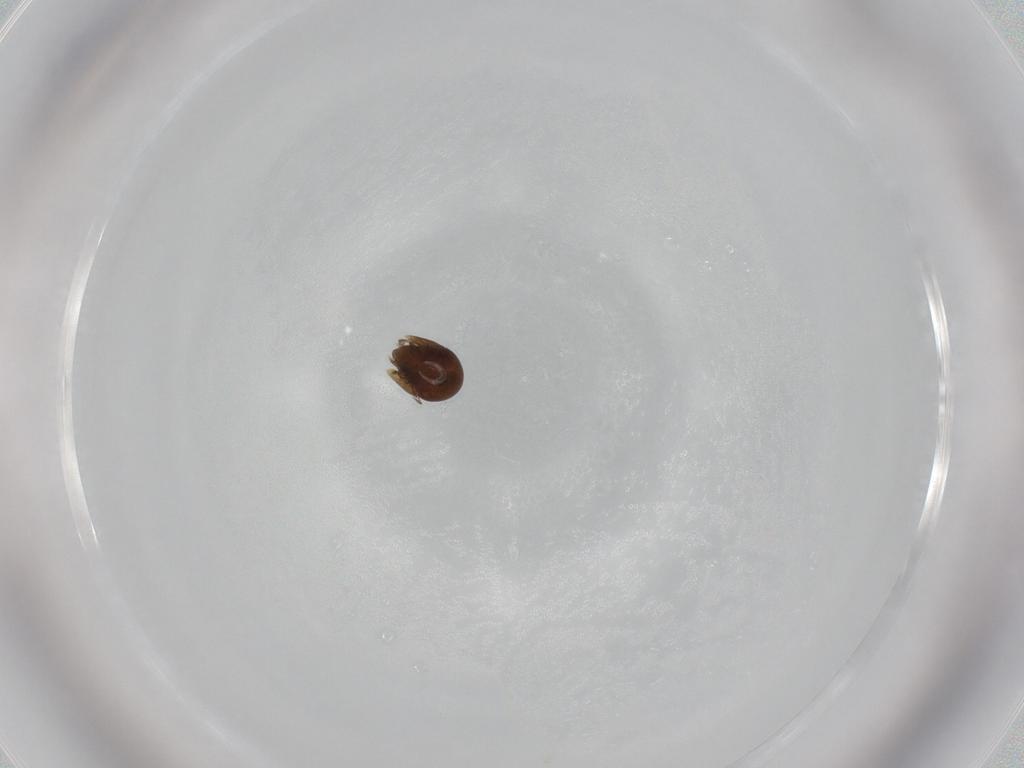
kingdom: Animalia
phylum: Arthropoda
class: Arachnida
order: Sarcoptiformes
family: Galumnidae
